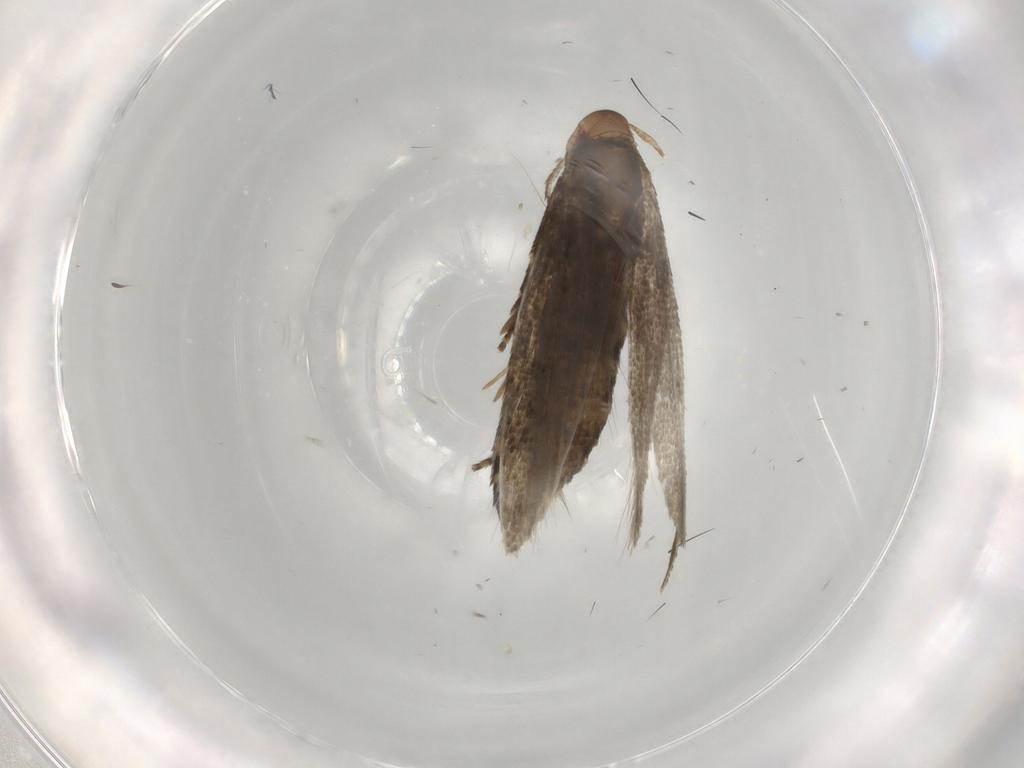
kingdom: Animalia
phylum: Arthropoda
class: Insecta
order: Lepidoptera
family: Momphidae
